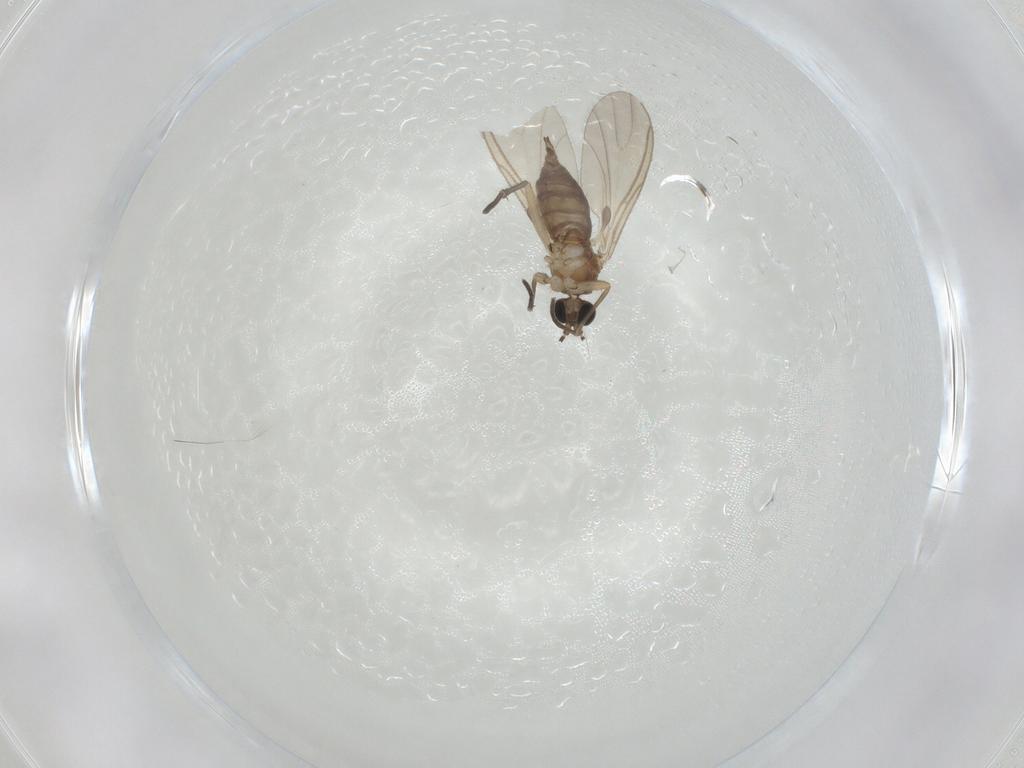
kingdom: Animalia
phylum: Arthropoda
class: Insecta
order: Diptera
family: Sciaridae
